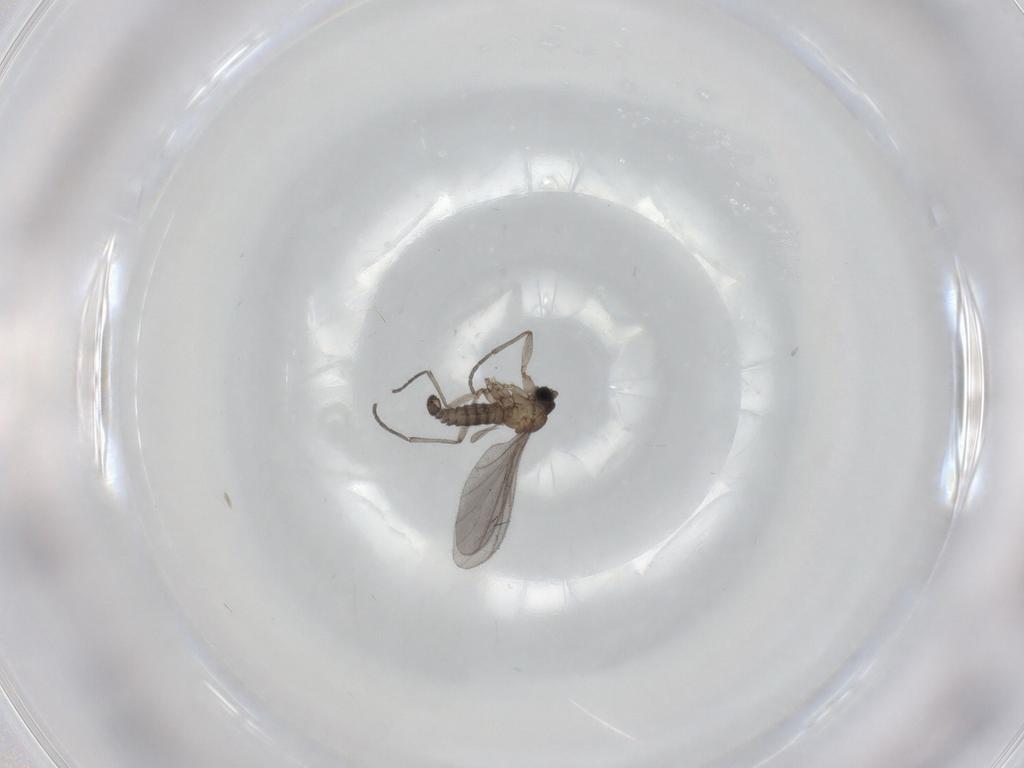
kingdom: Animalia
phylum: Arthropoda
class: Insecta
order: Diptera
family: Sciaridae
